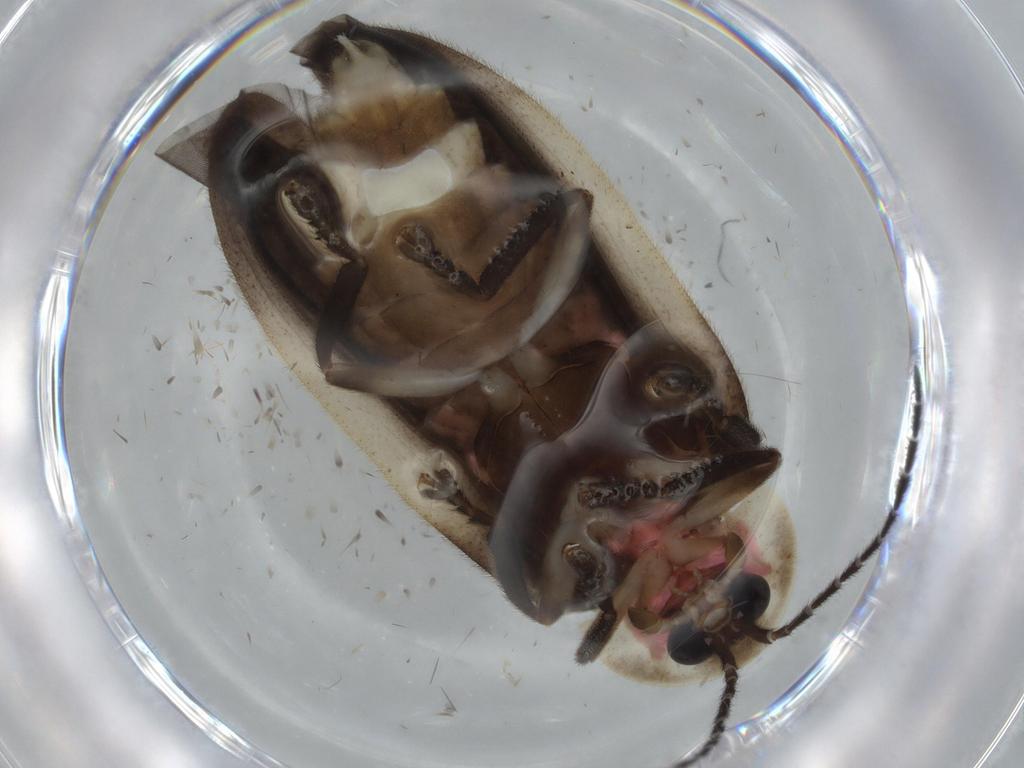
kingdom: Animalia
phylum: Arthropoda
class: Insecta
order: Coleoptera
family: Lampyridae
